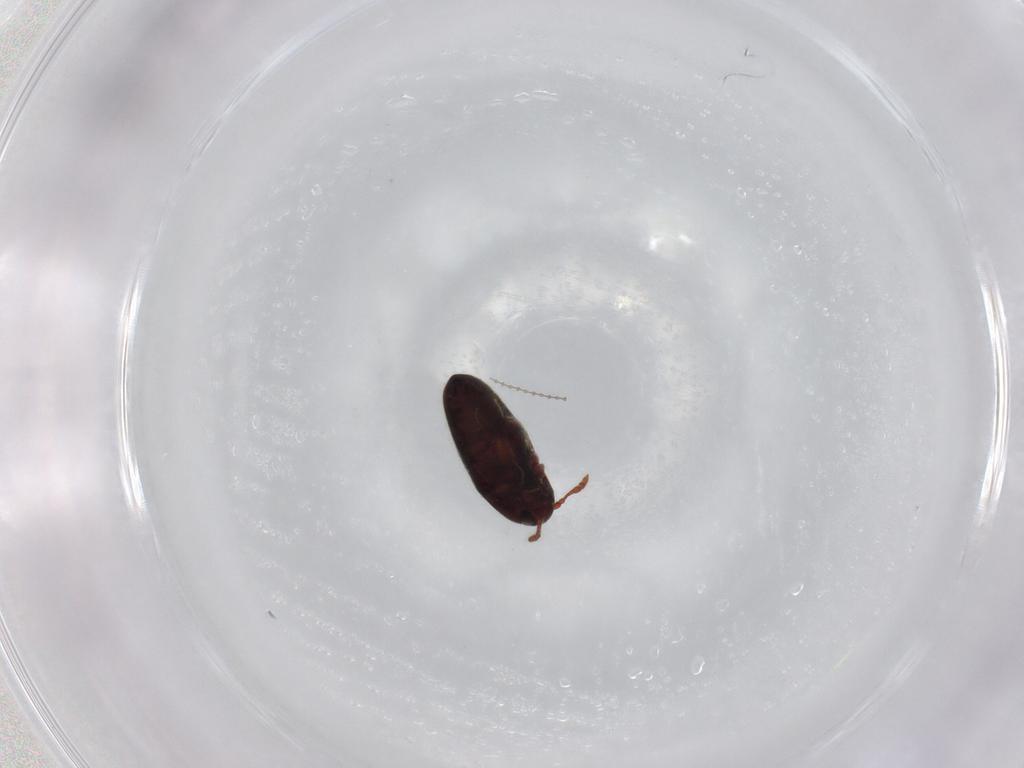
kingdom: Animalia
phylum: Arthropoda
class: Insecta
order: Coleoptera
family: Throscidae
